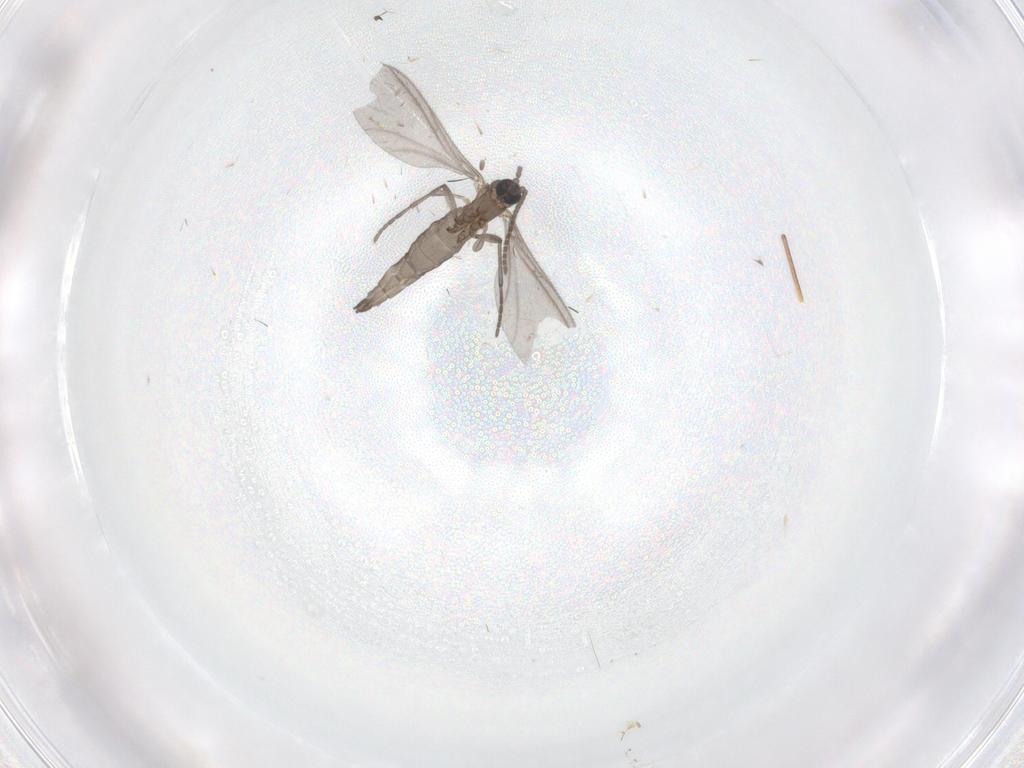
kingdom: Animalia
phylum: Arthropoda
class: Insecta
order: Diptera
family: Sciaridae
